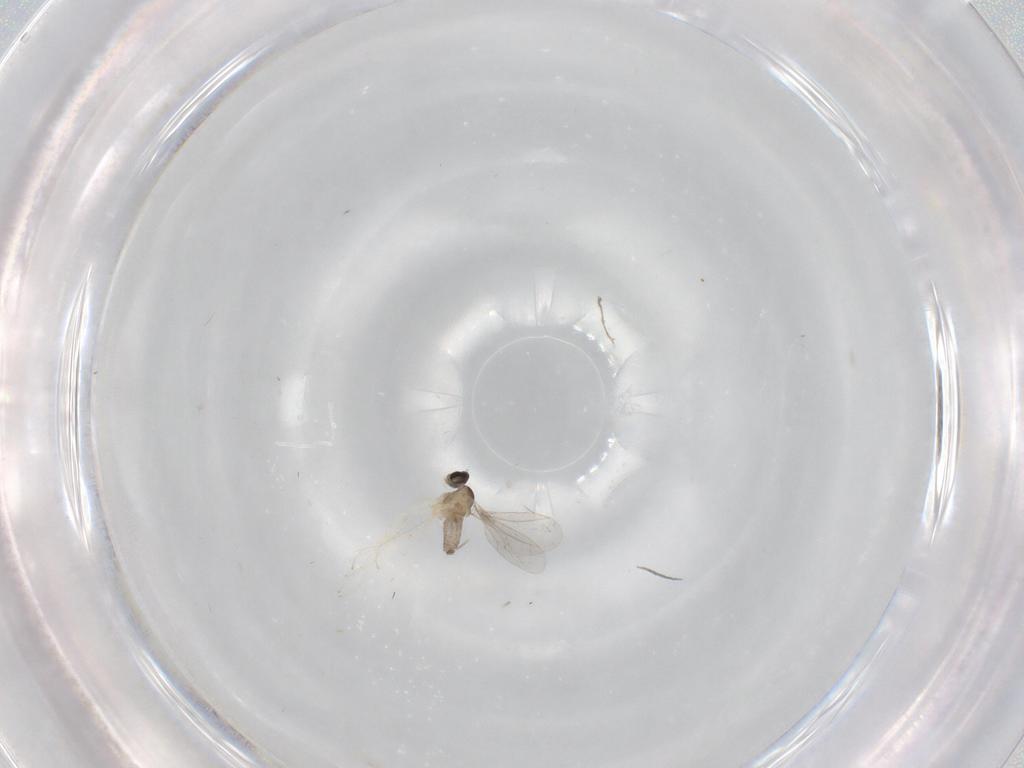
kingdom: Animalia
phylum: Arthropoda
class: Insecta
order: Diptera
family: Cecidomyiidae
